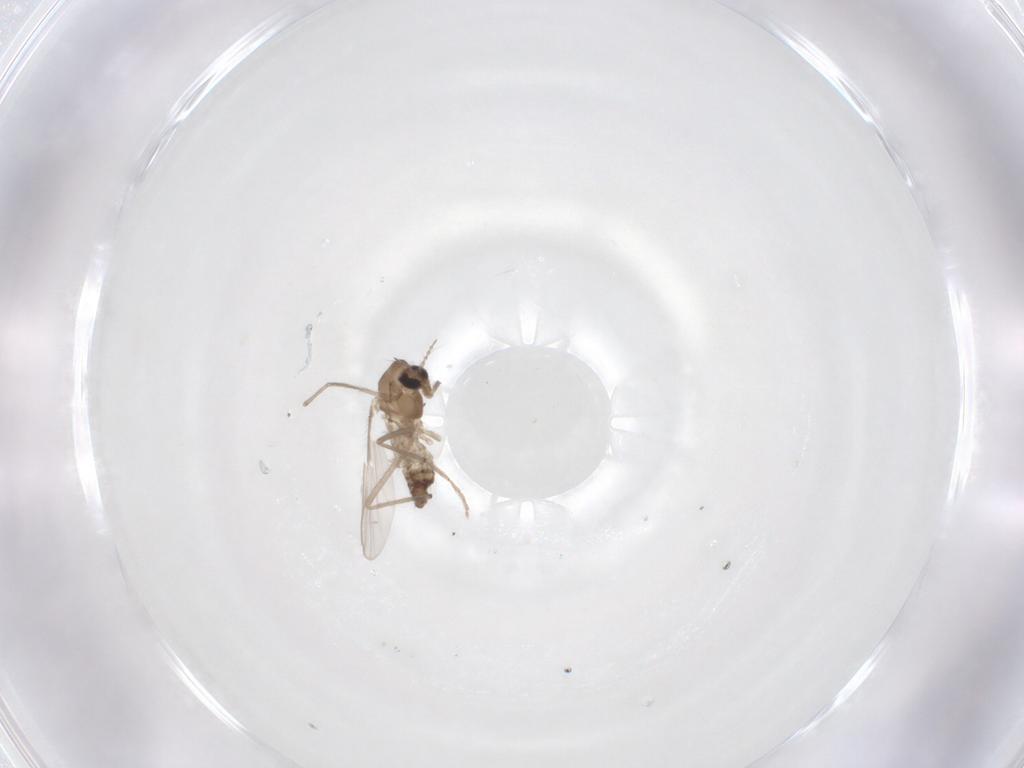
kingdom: Animalia
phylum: Arthropoda
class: Insecta
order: Diptera
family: Chironomidae
